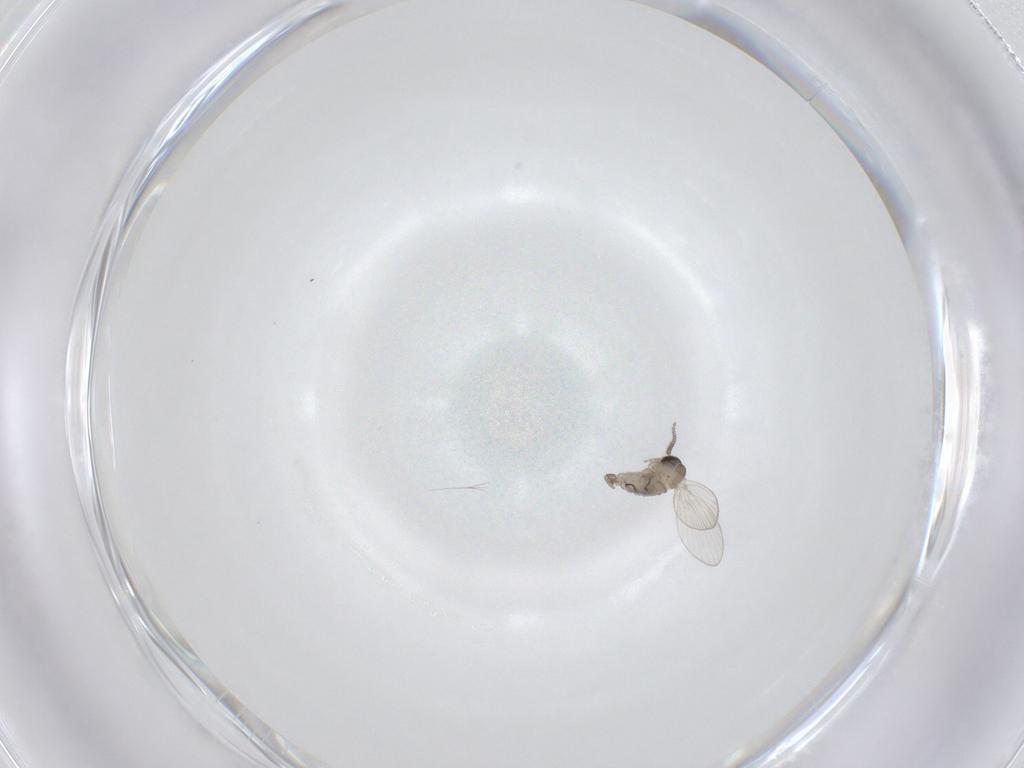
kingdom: Animalia
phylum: Arthropoda
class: Insecta
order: Diptera
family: Psychodidae
